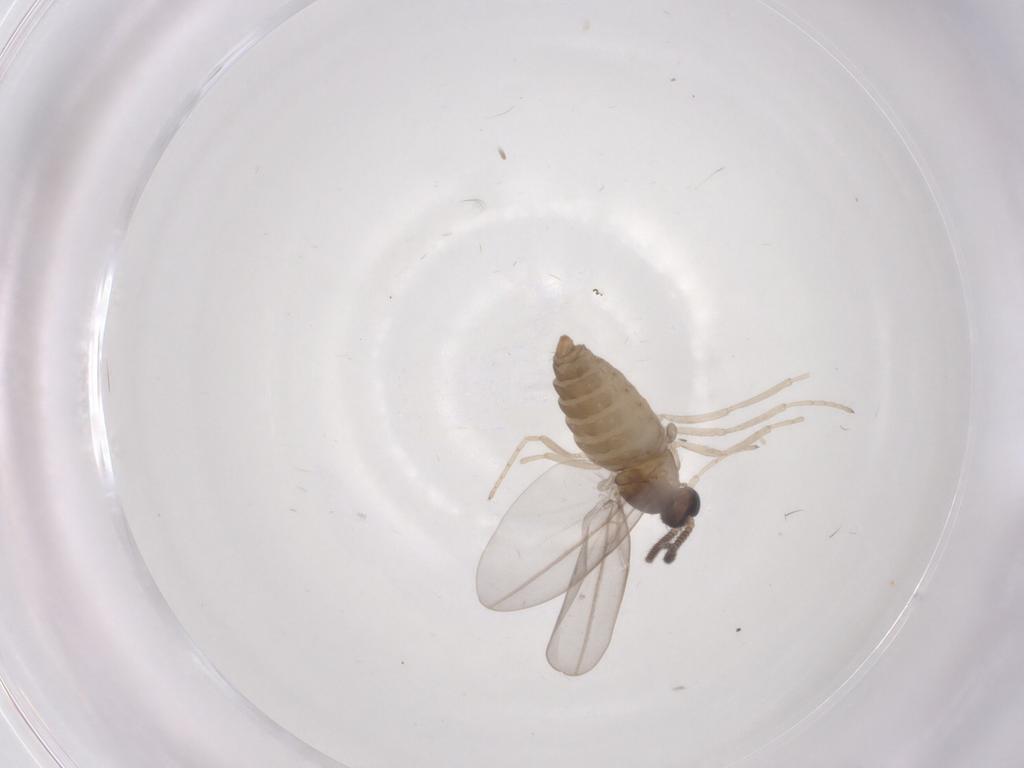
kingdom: Animalia
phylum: Arthropoda
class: Insecta
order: Diptera
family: Cecidomyiidae
